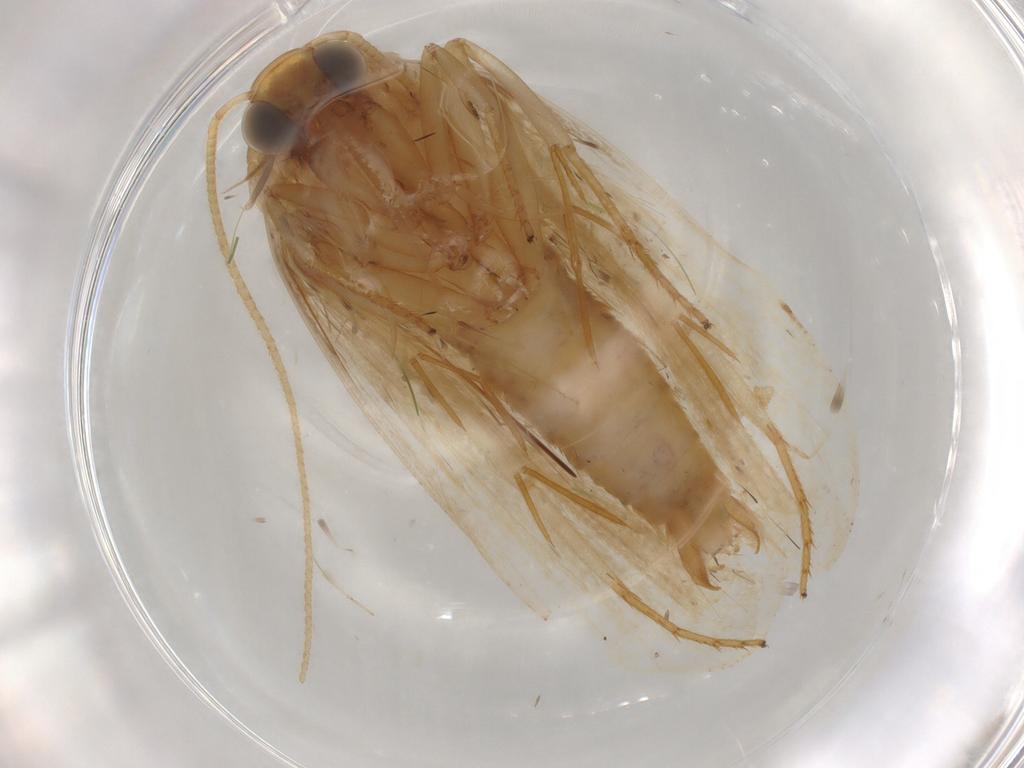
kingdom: Animalia
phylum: Arthropoda
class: Insecta
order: Lepidoptera
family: Depressariidae
